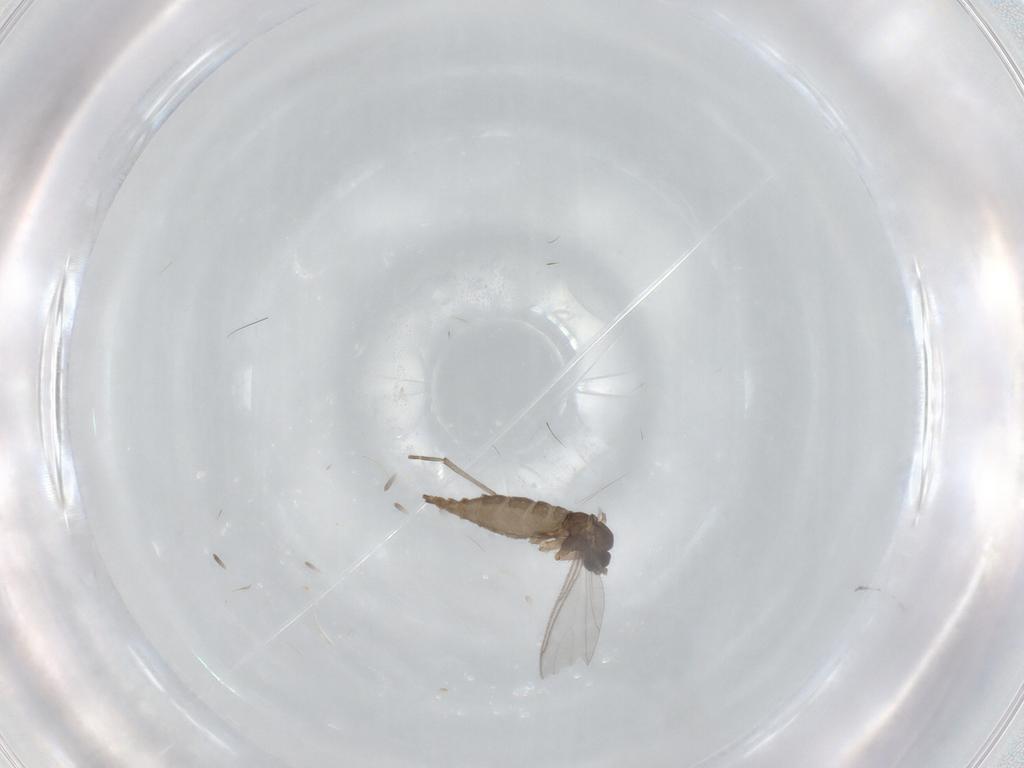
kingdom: Animalia
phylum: Arthropoda
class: Insecta
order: Diptera
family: Sciaridae
